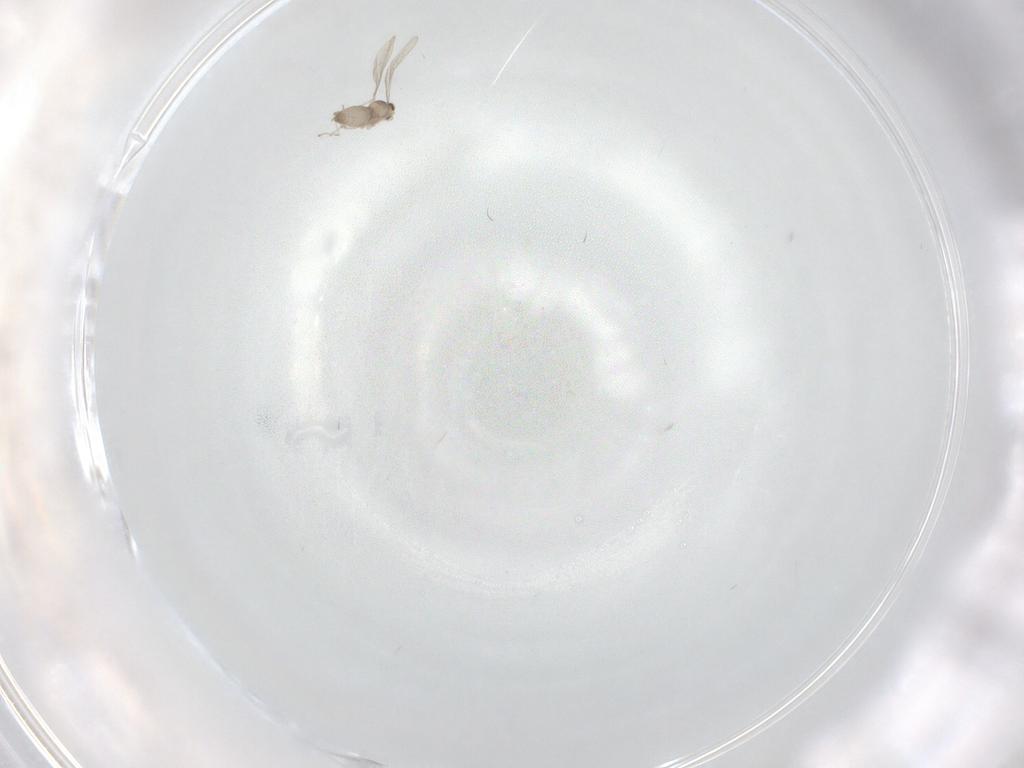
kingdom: Animalia
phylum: Arthropoda
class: Insecta
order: Diptera
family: Cecidomyiidae
